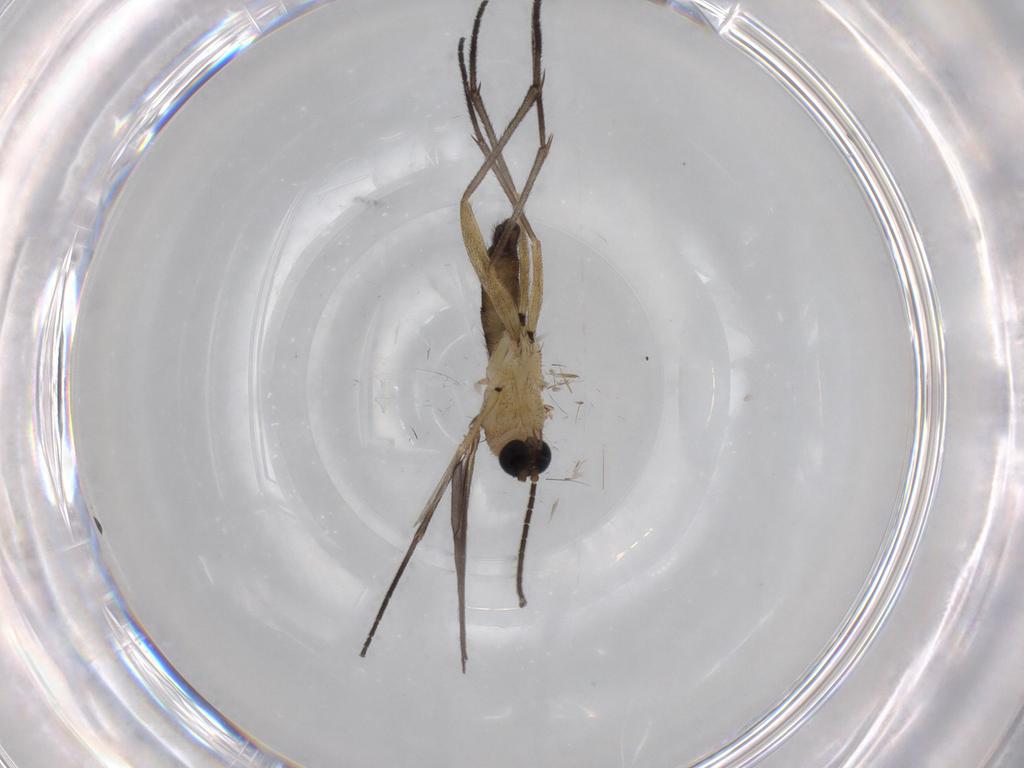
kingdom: Animalia
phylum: Arthropoda
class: Insecta
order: Diptera
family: Sciaridae
